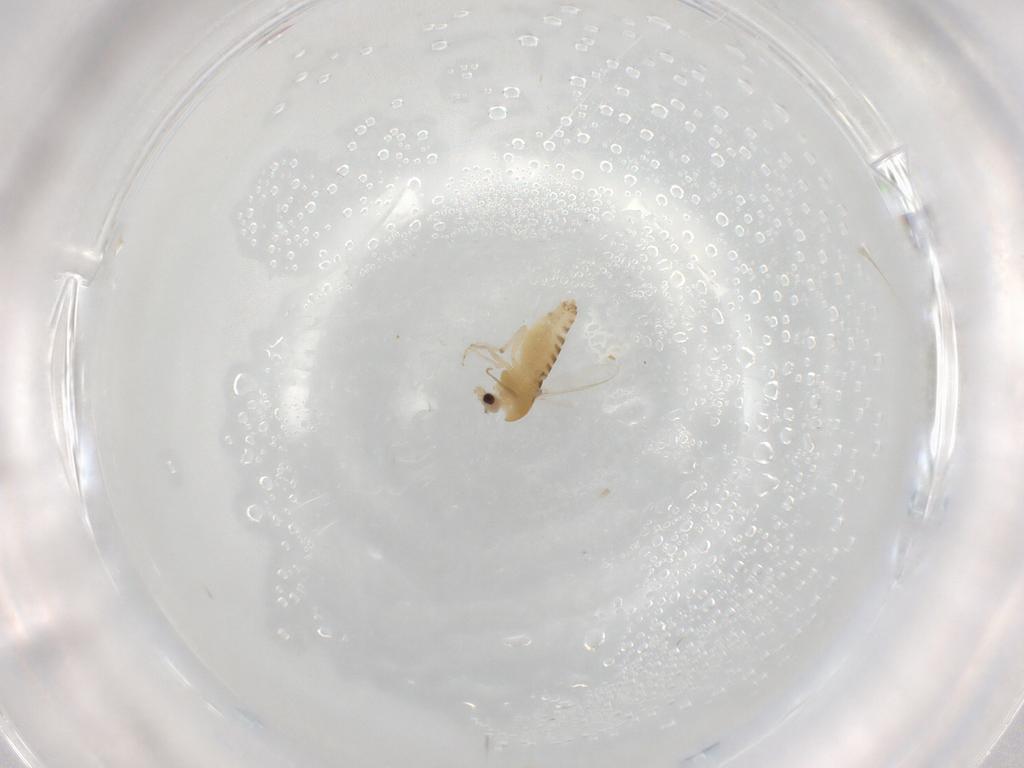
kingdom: Animalia
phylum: Arthropoda
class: Insecta
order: Diptera
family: Chironomidae
